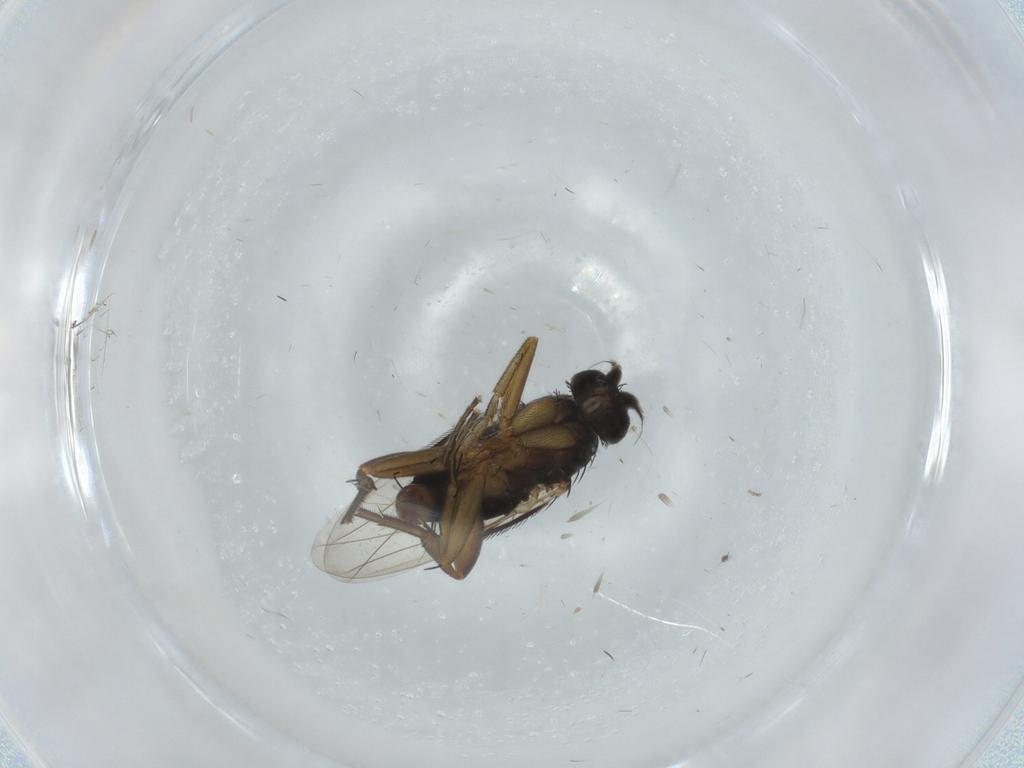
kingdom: Animalia
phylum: Arthropoda
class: Insecta
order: Diptera
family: Phoridae
